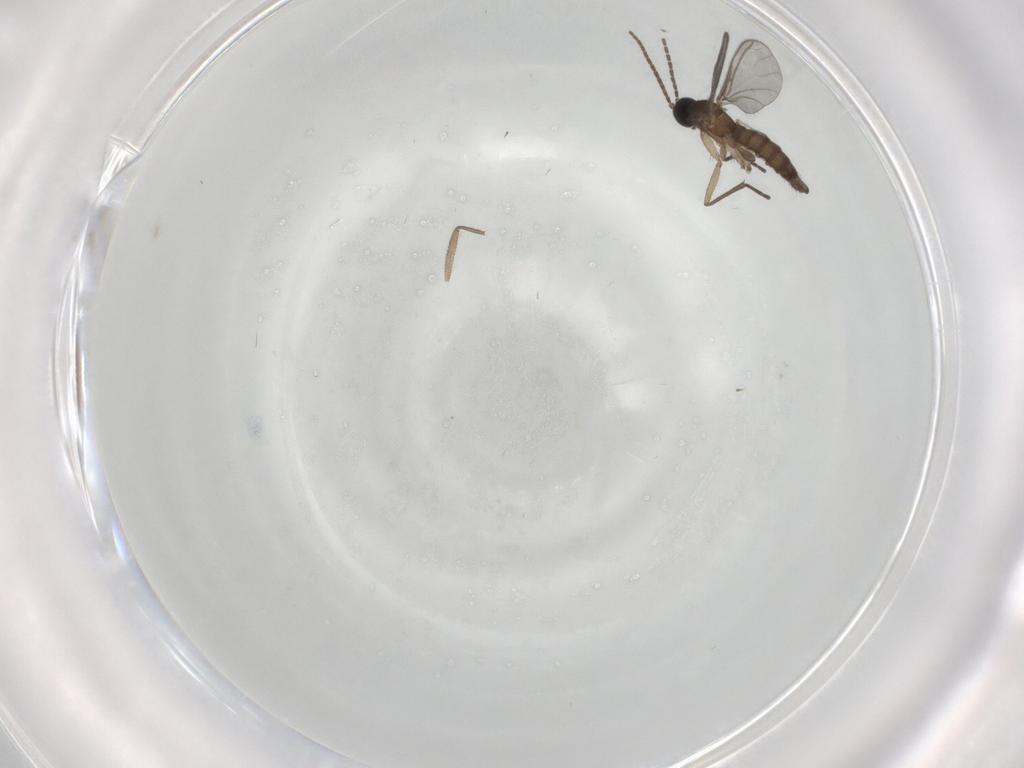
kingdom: Animalia
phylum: Arthropoda
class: Insecta
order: Diptera
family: Sciaridae
